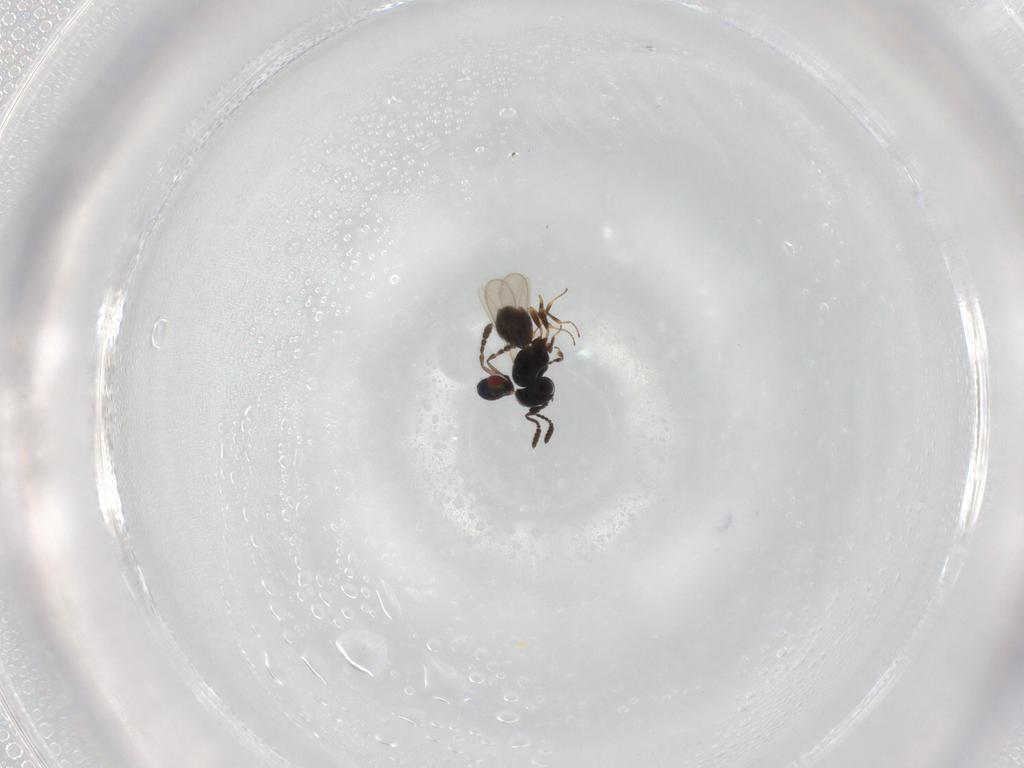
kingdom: Animalia
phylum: Arthropoda
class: Insecta
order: Hymenoptera
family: Scelionidae
